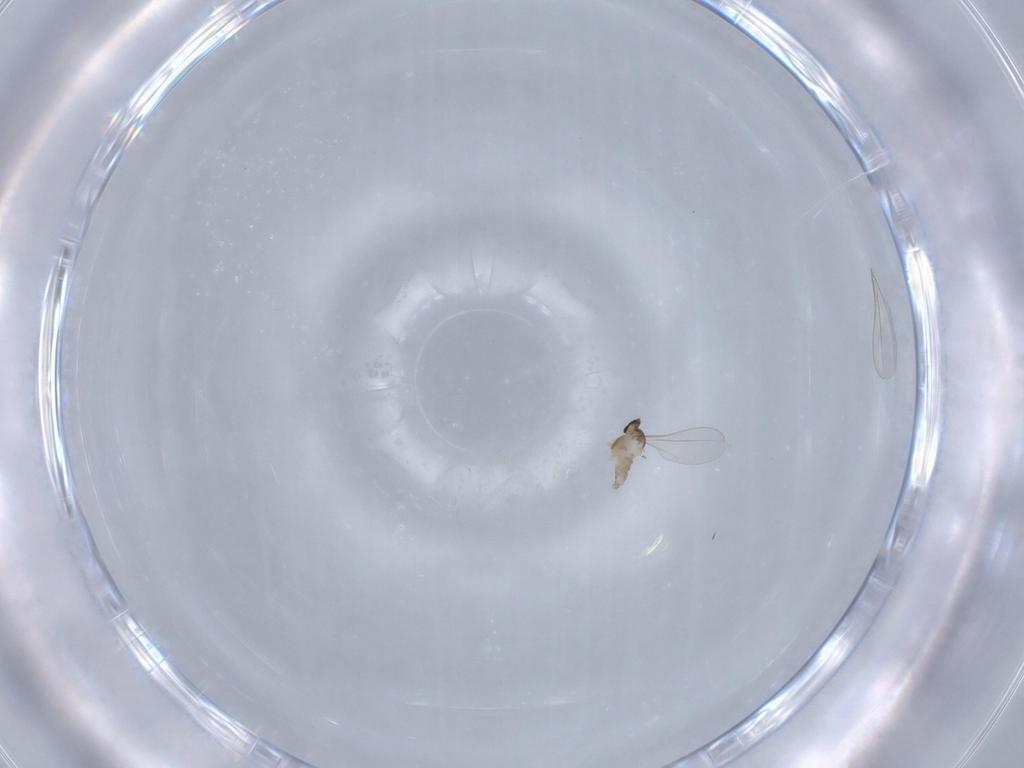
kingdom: Animalia
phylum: Arthropoda
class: Insecta
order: Diptera
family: Cecidomyiidae
